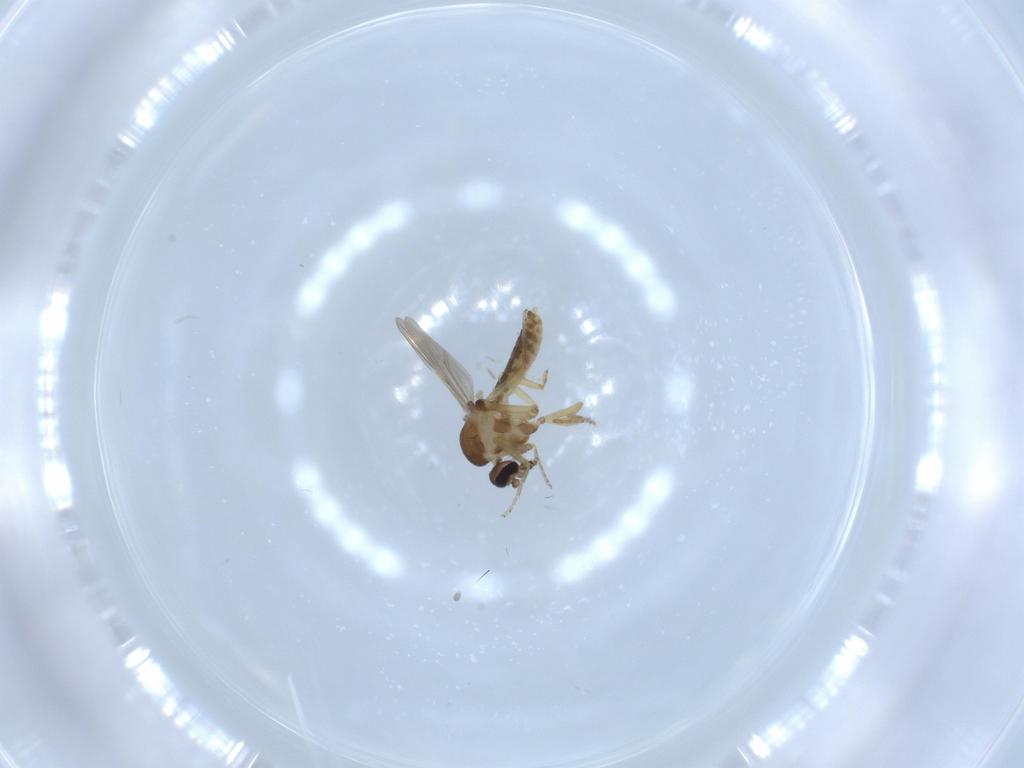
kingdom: Animalia
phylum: Arthropoda
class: Insecta
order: Diptera
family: Ceratopogonidae
